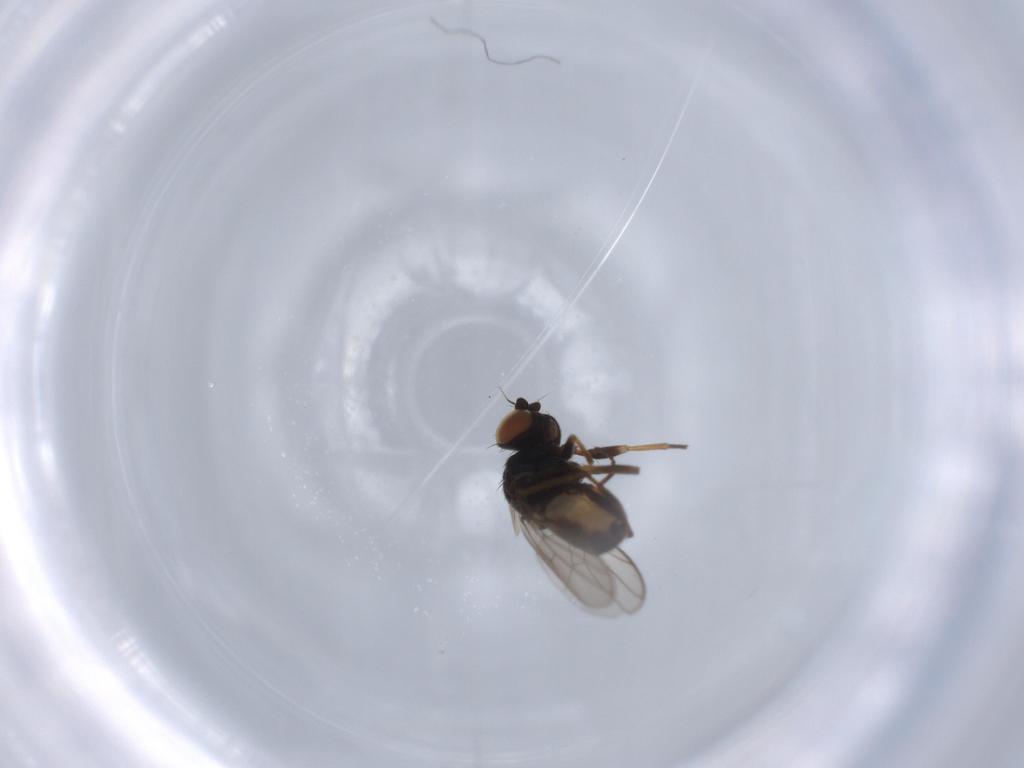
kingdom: Animalia
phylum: Arthropoda
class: Insecta
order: Diptera
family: Chloropidae
